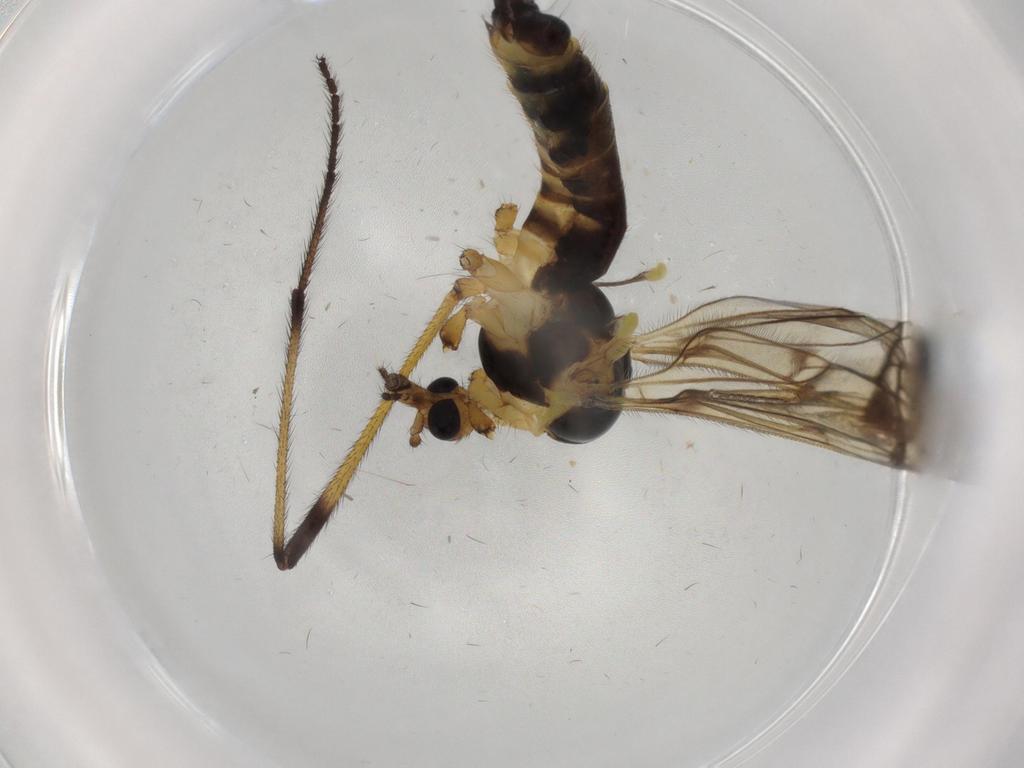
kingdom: Animalia
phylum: Arthropoda
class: Insecta
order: Diptera
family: Limoniidae
